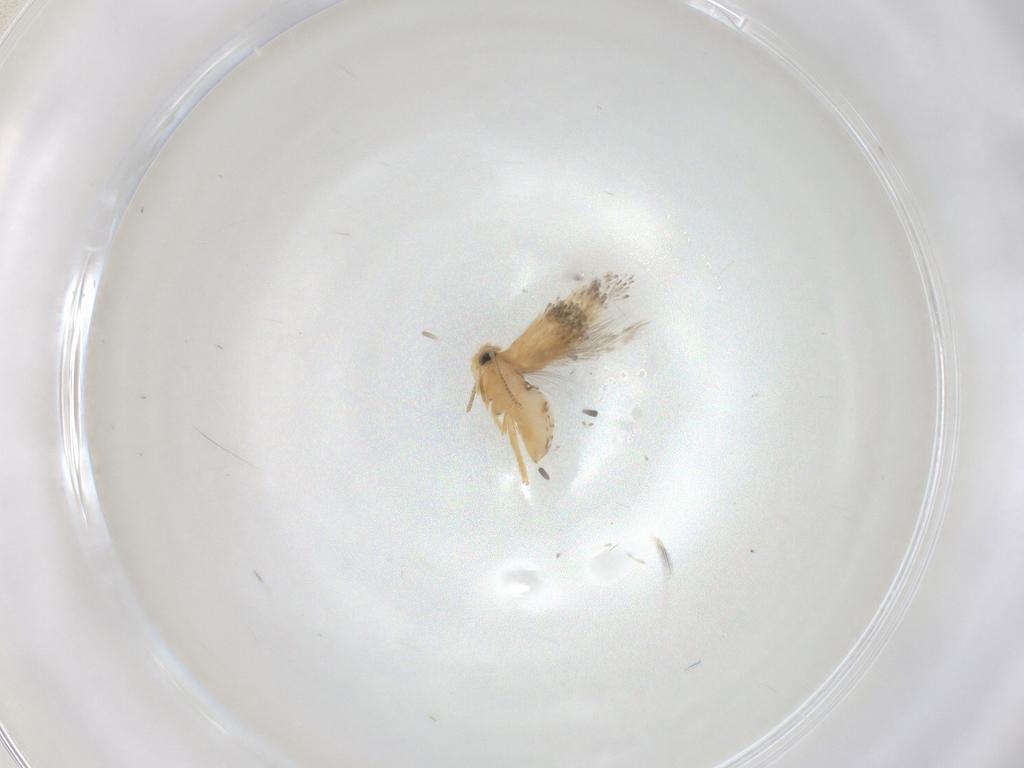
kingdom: Animalia
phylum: Arthropoda
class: Insecta
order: Lepidoptera
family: Nepticulidae
